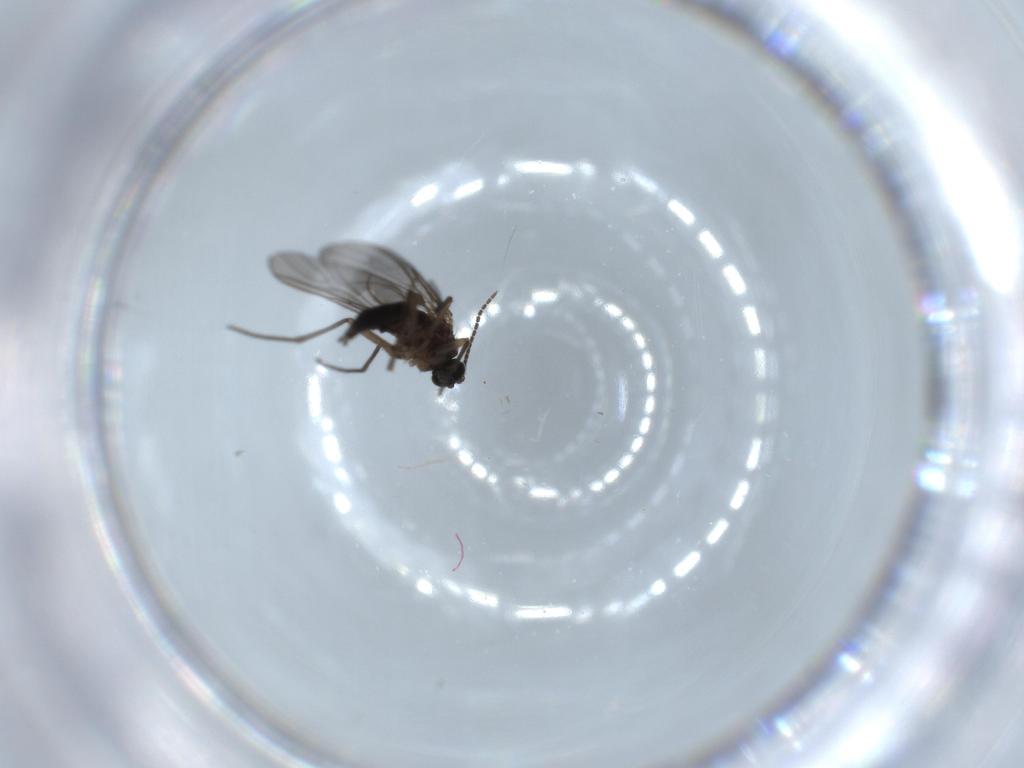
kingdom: Animalia
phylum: Arthropoda
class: Insecta
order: Diptera
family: Sciaridae
